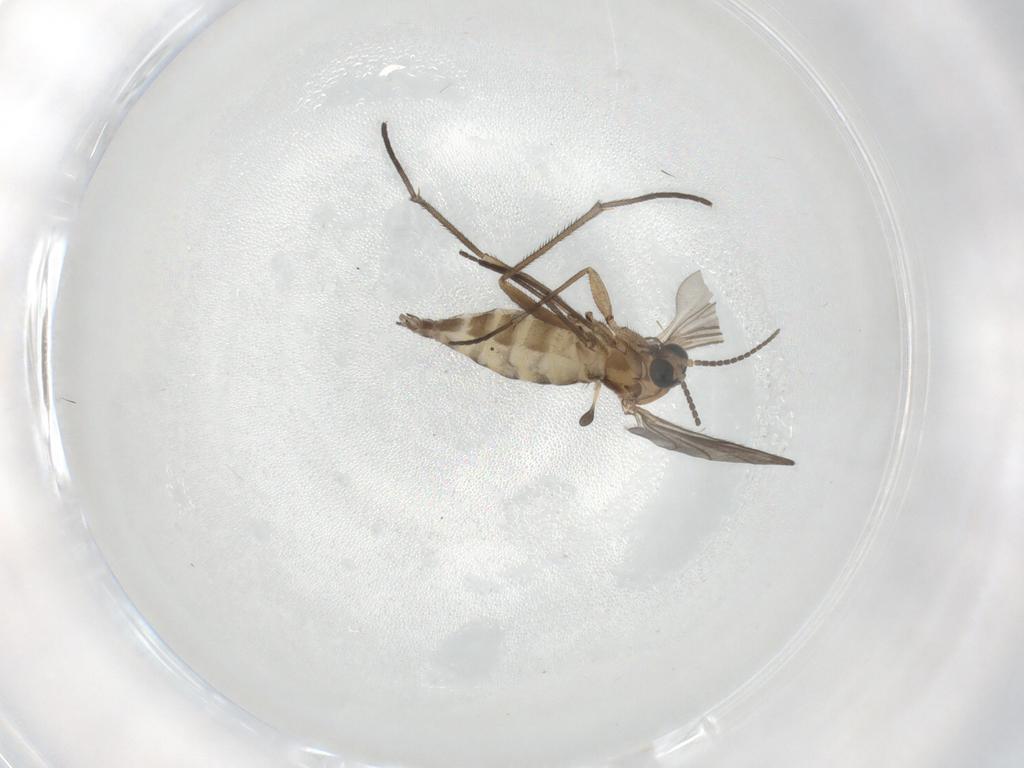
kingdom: Animalia
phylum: Arthropoda
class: Insecta
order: Diptera
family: Sciaridae
